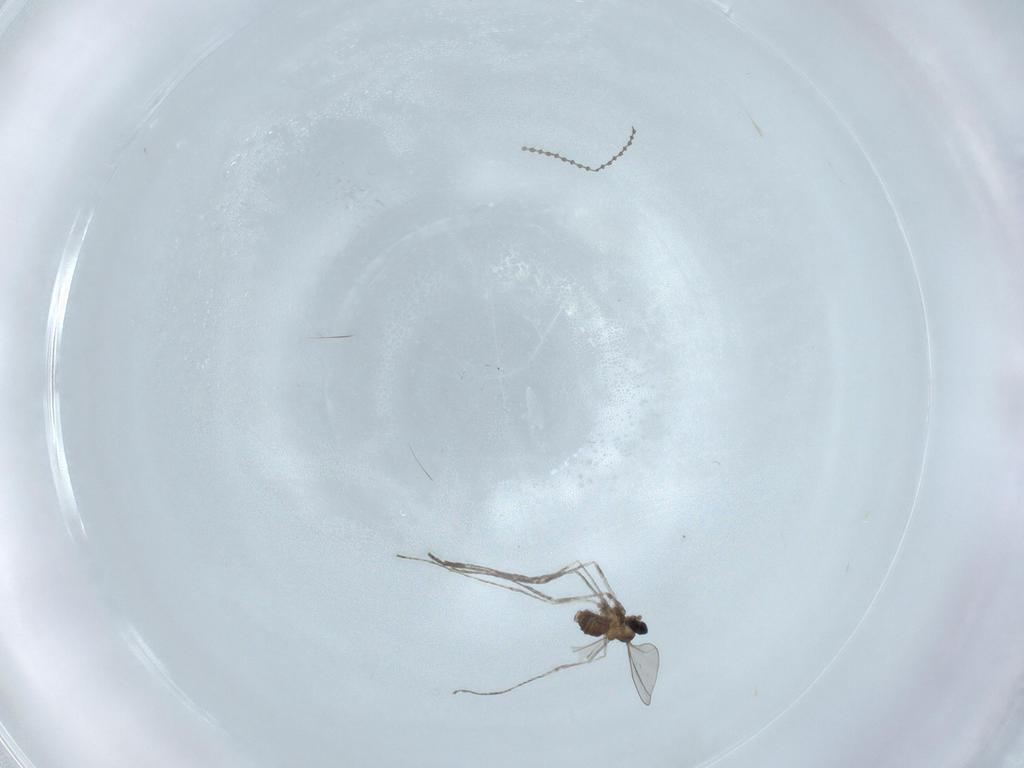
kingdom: Animalia
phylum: Arthropoda
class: Insecta
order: Diptera
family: Cecidomyiidae
